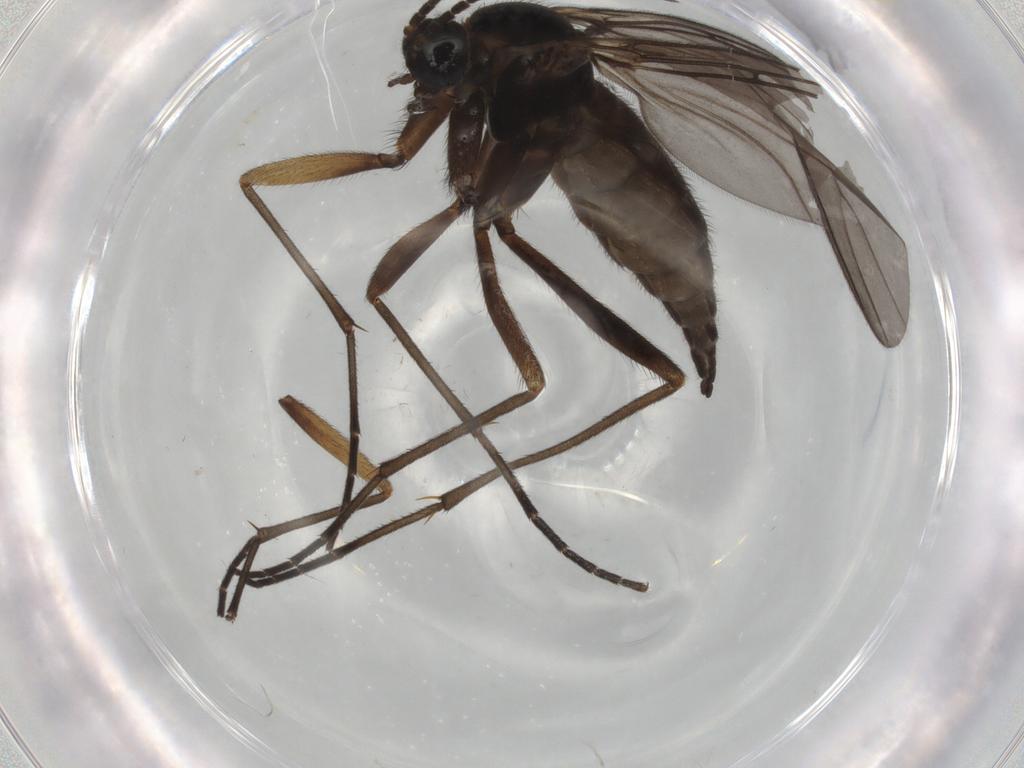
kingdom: Animalia
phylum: Arthropoda
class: Insecta
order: Diptera
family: Sciaridae
